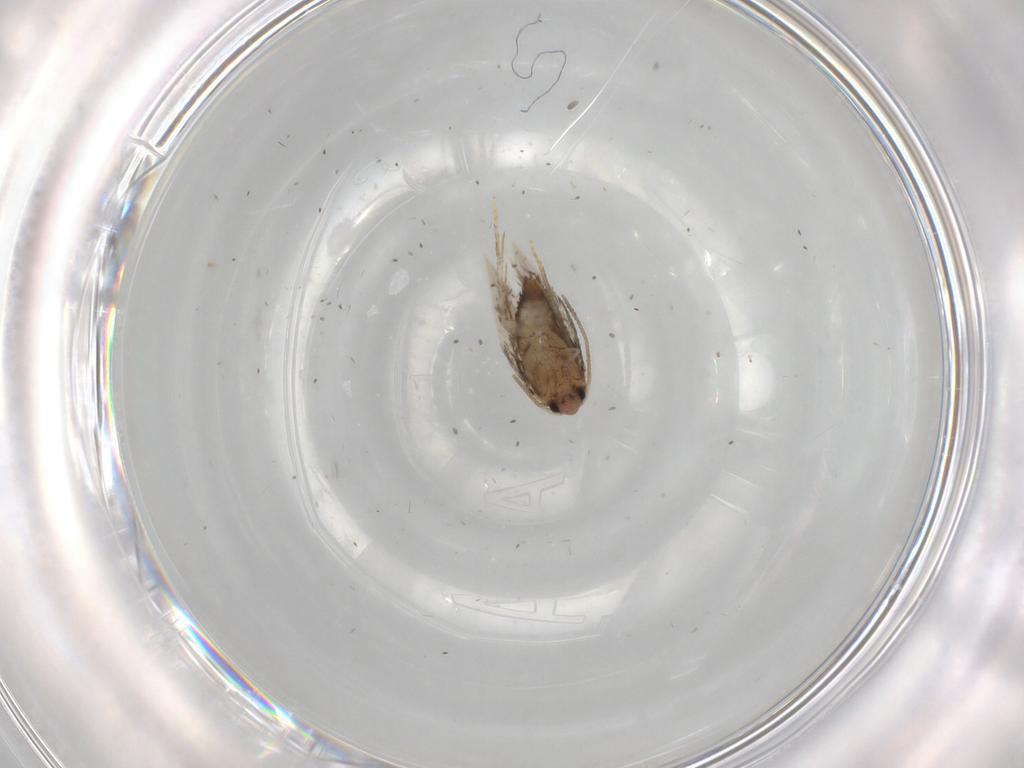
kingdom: Animalia
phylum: Arthropoda
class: Insecta
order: Lepidoptera
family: Nepticulidae
